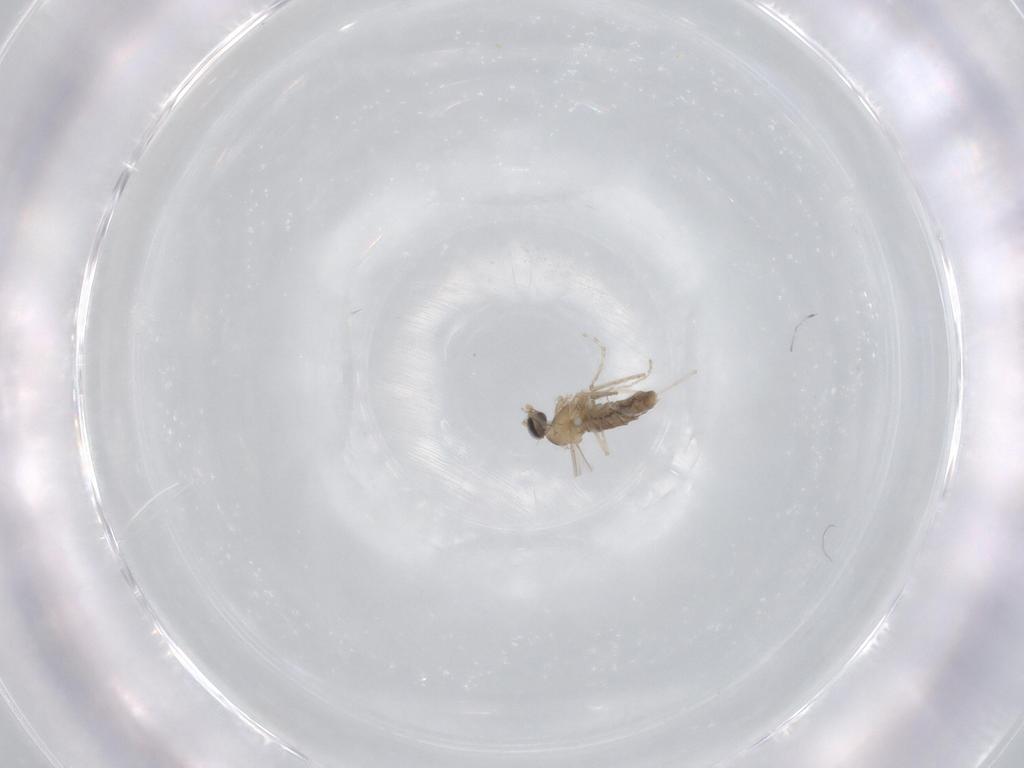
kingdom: Animalia
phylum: Arthropoda
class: Insecta
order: Diptera
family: Cecidomyiidae
